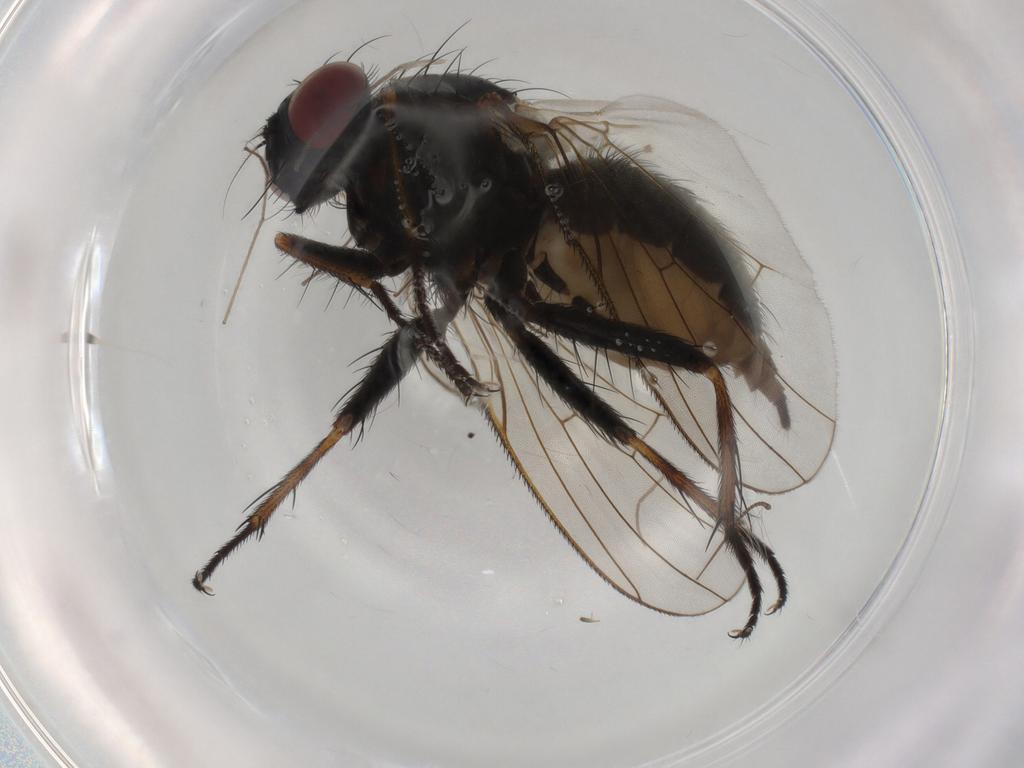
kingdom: Animalia
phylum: Arthropoda
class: Insecta
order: Diptera
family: Muscidae
